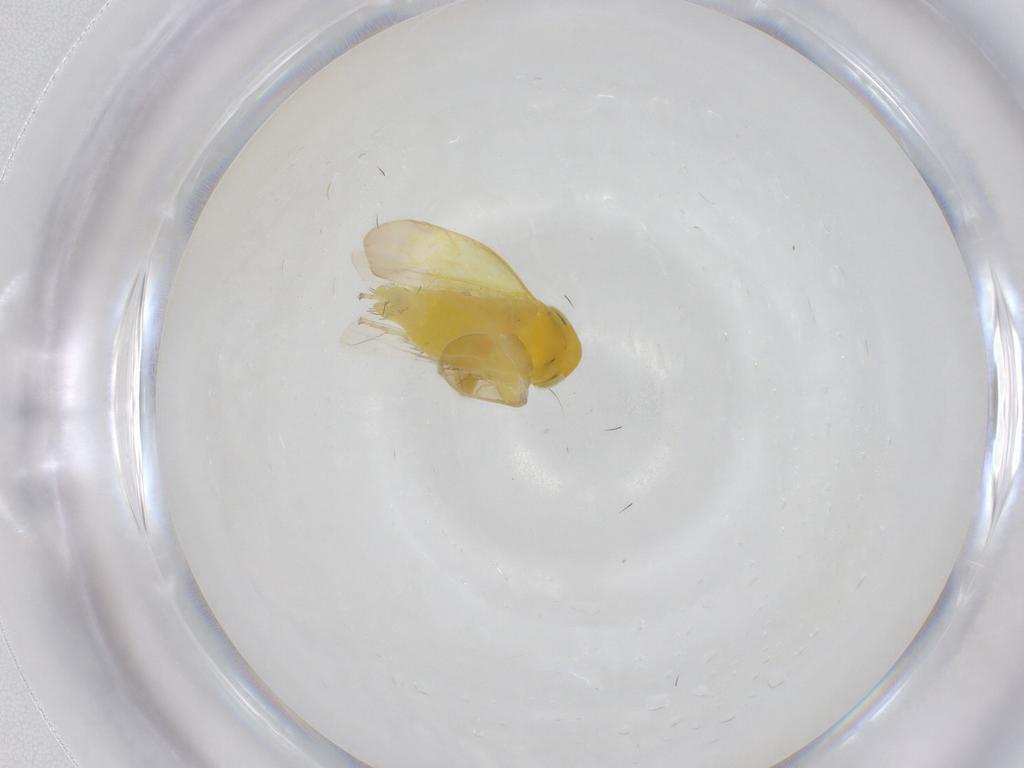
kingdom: Animalia
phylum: Arthropoda
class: Insecta
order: Hemiptera
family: Cicadellidae
